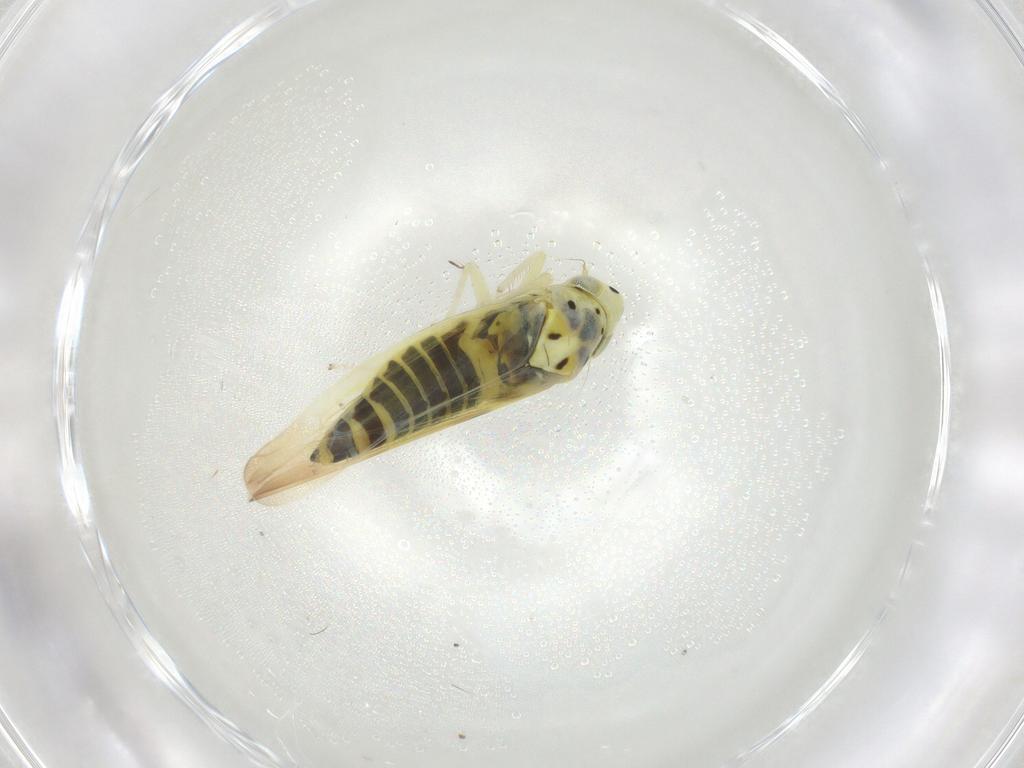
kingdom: Animalia
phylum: Arthropoda
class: Insecta
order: Hemiptera
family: Cicadellidae
